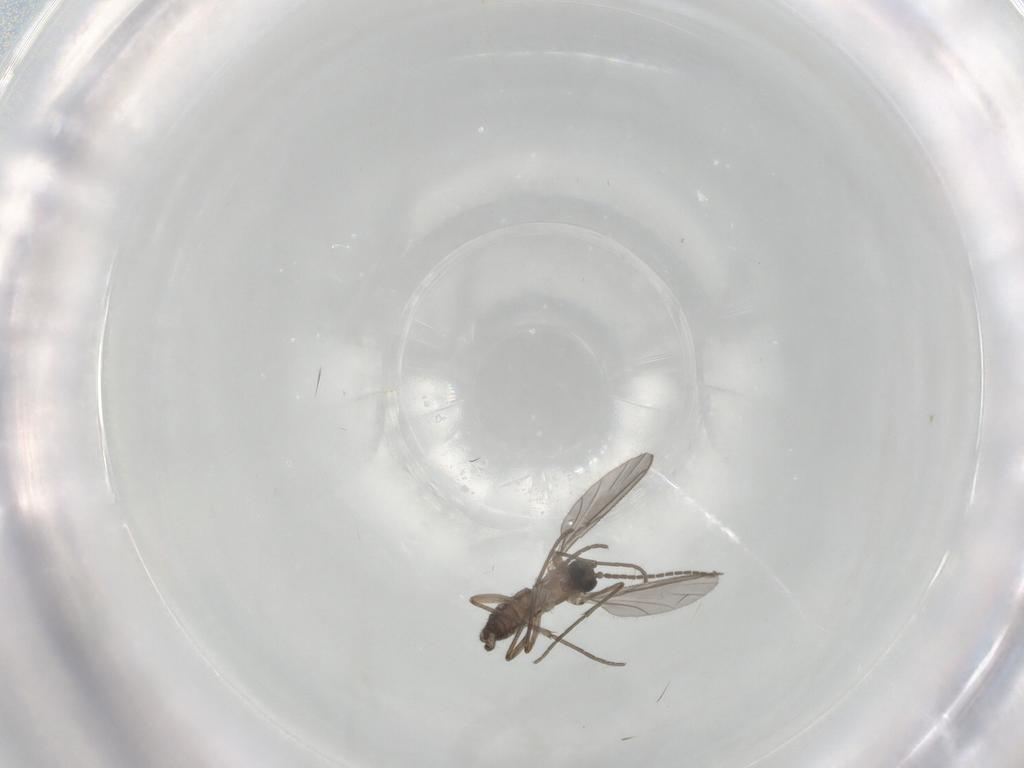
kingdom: Animalia
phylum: Arthropoda
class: Insecta
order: Diptera
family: Sciaridae
